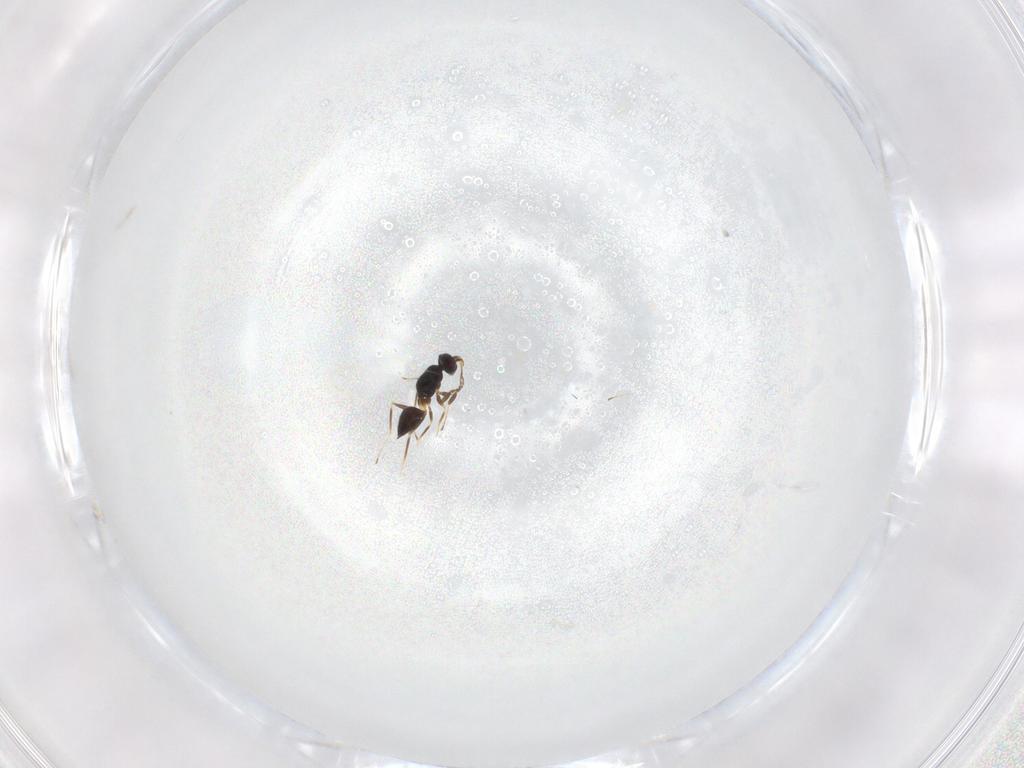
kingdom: Animalia
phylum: Arthropoda
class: Insecta
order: Hymenoptera
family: Mymaridae
